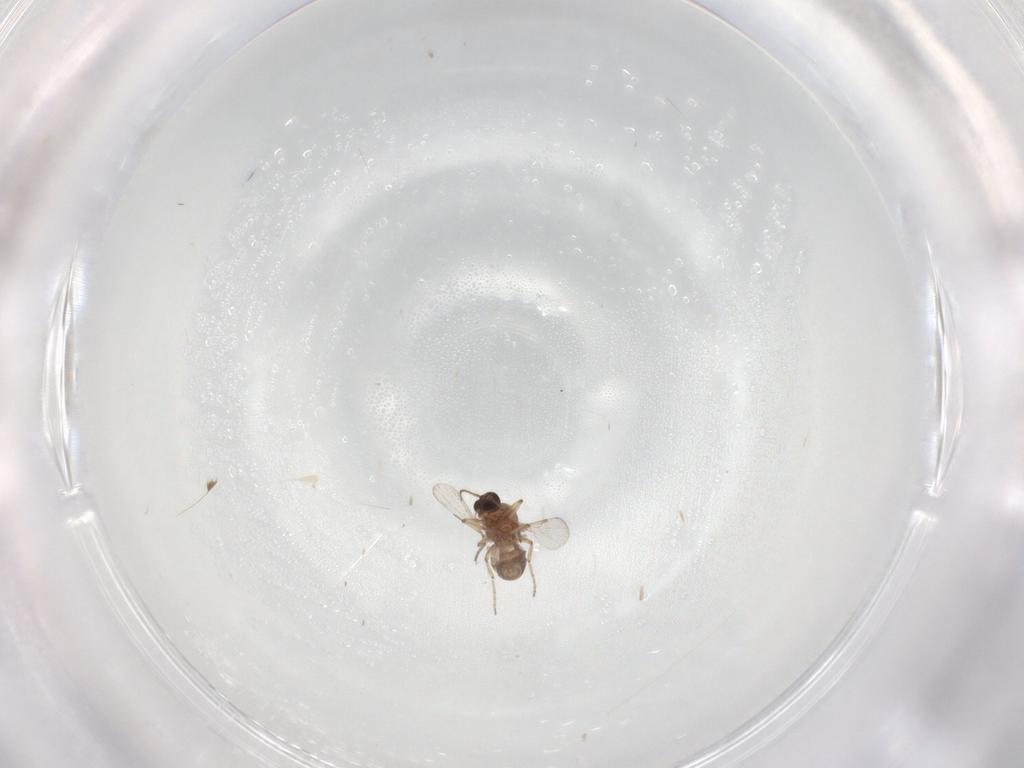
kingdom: Animalia
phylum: Arthropoda
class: Insecta
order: Diptera
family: Ceratopogonidae
